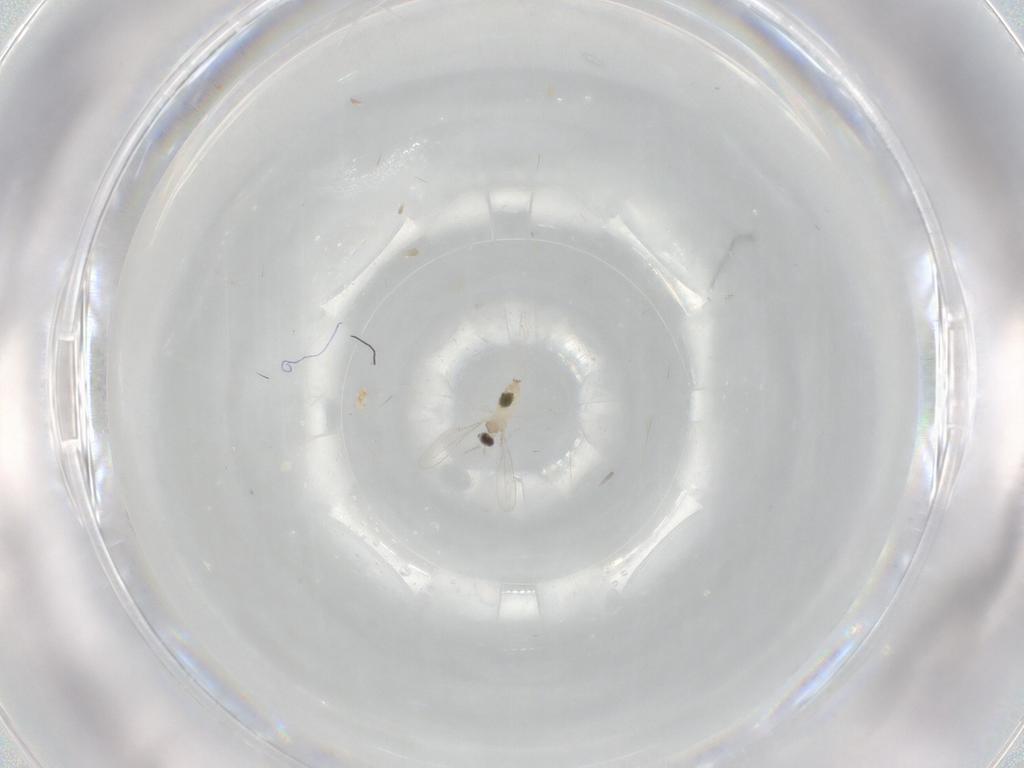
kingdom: Animalia
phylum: Arthropoda
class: Insecta
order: Diptera
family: Cecidomyiidae
